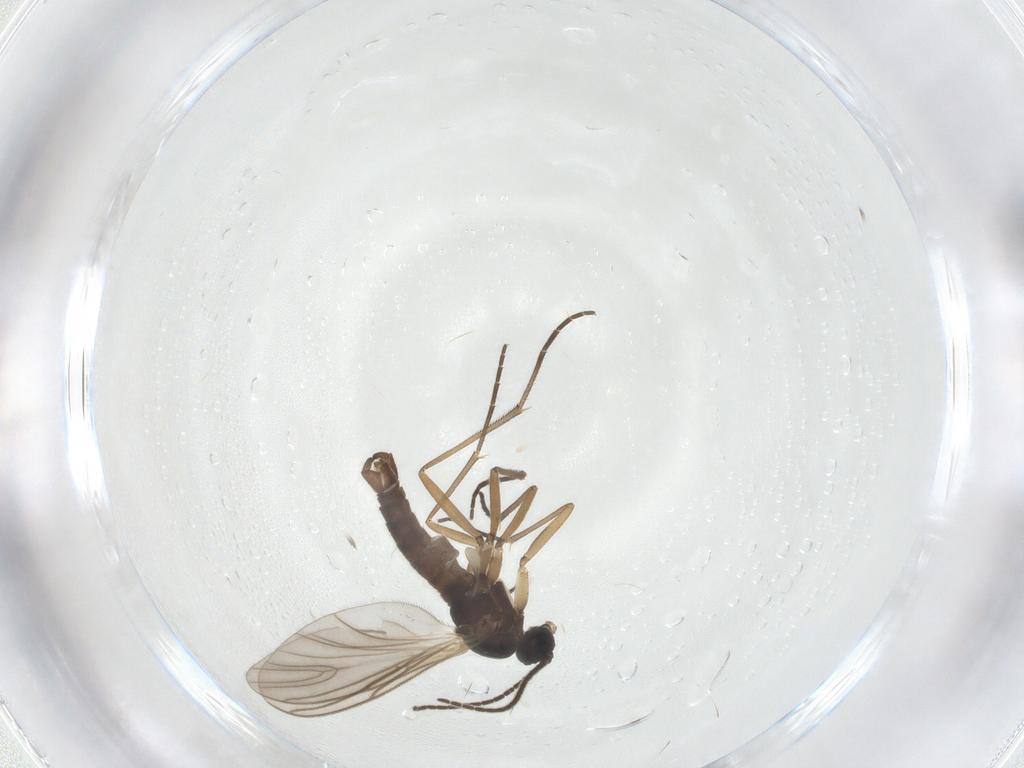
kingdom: Animalia
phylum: Arthropoda
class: Insecta
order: Diptera
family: Sciaridae
